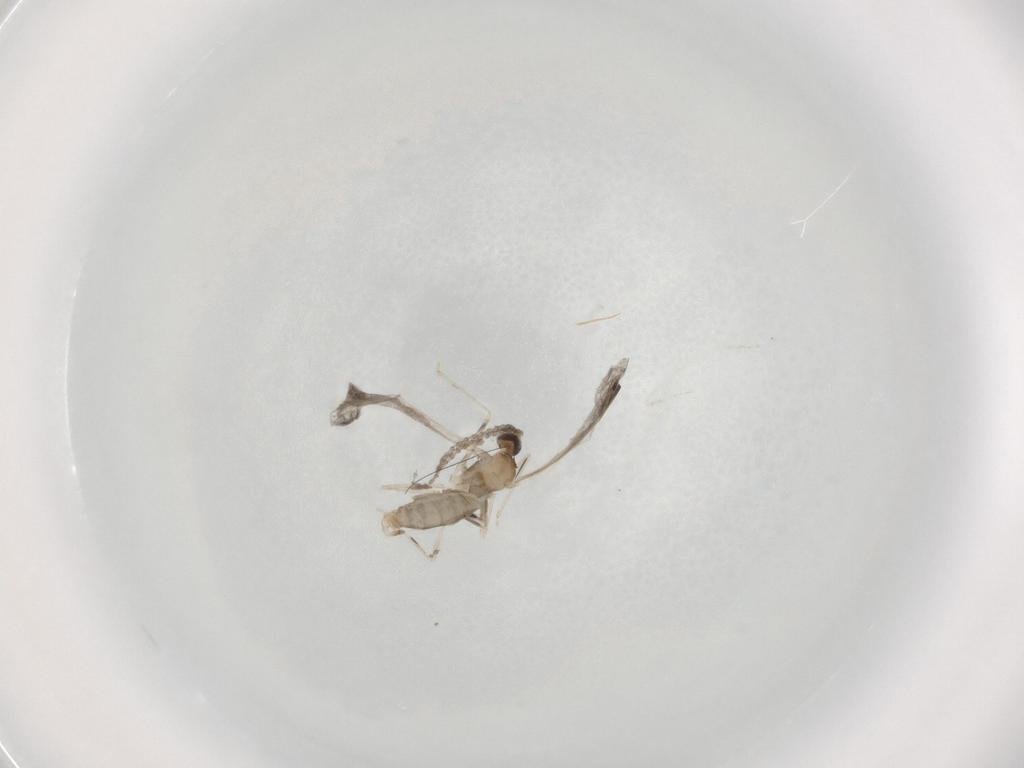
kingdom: Animalia
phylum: Arthropoda
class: Insecta
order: Diptera
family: Cecidomyiidae
